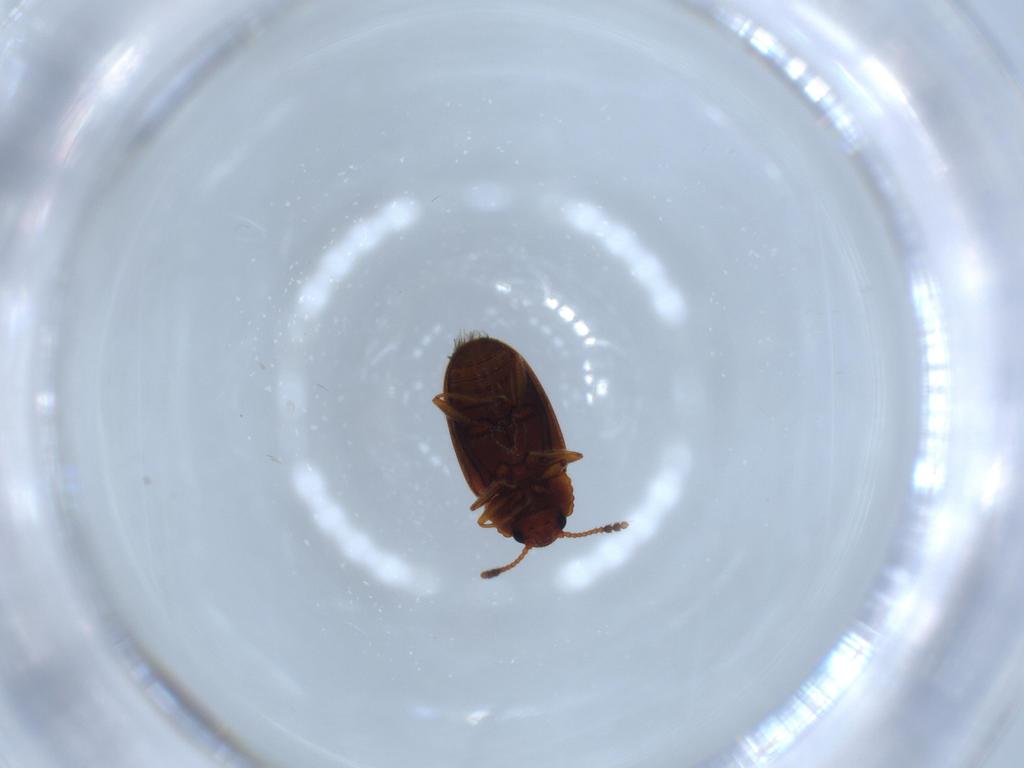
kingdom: Animalia
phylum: Arthropoda
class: Insecta
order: Coleoptera
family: Erotylidae
